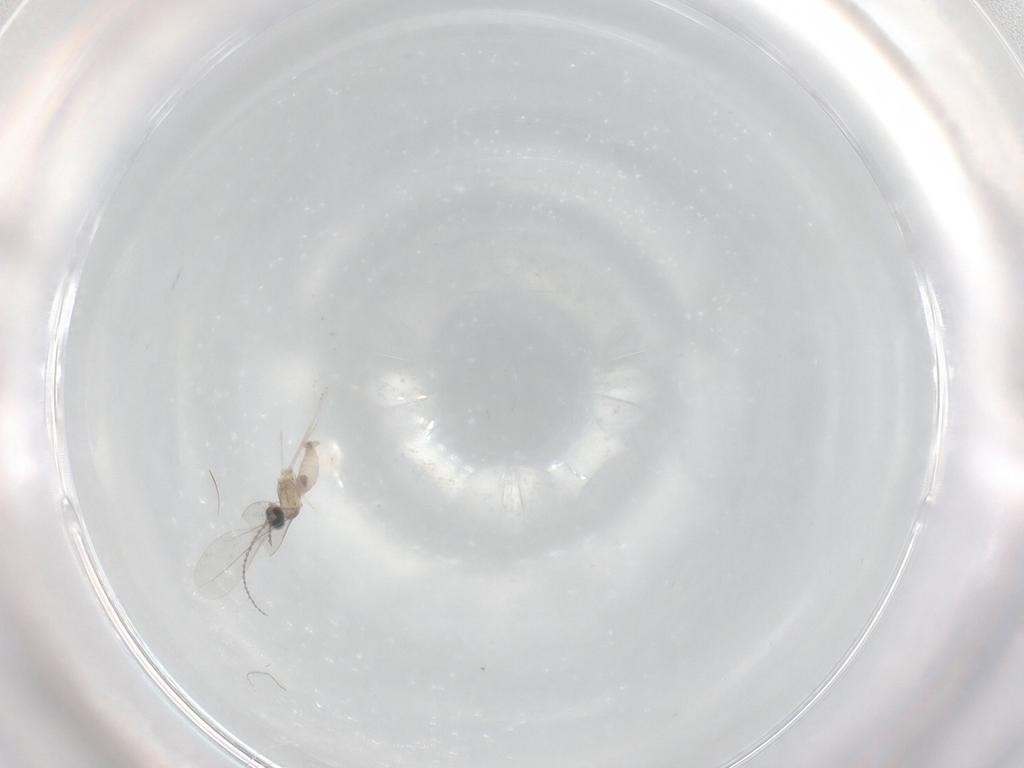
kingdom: Animalia
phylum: Arthropoda
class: Insecta
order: Diptera
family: Cecidomyiidae
